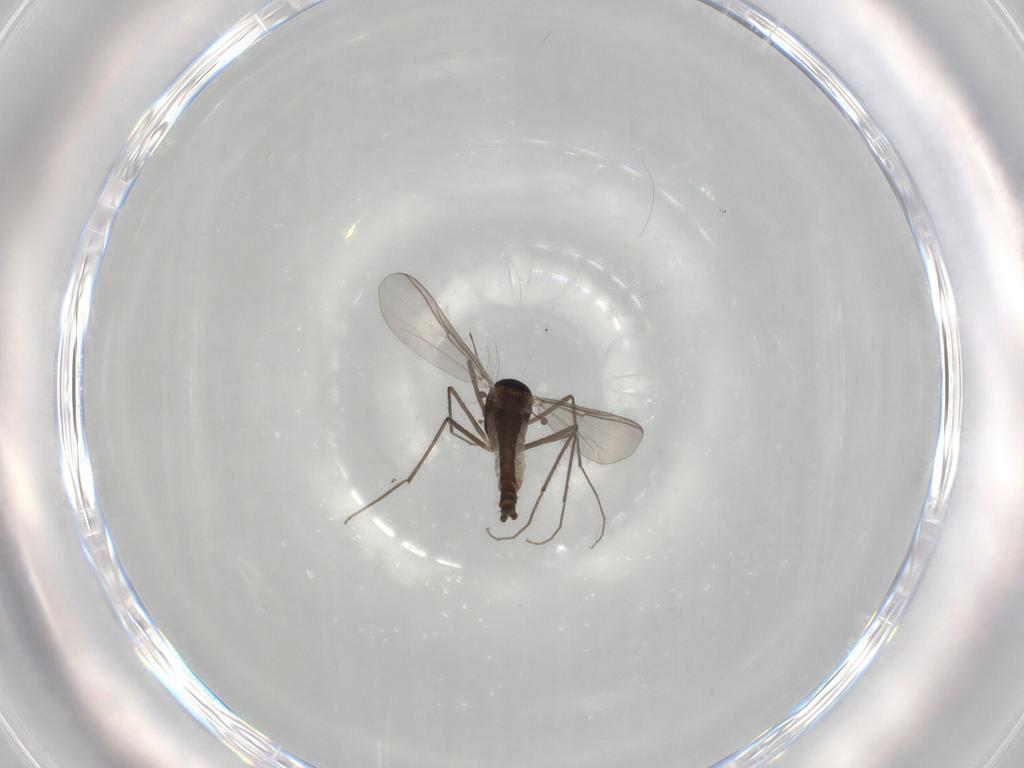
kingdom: Animalia
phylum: Arthropoda
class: Insecta
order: Diptera
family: Chironomidae
